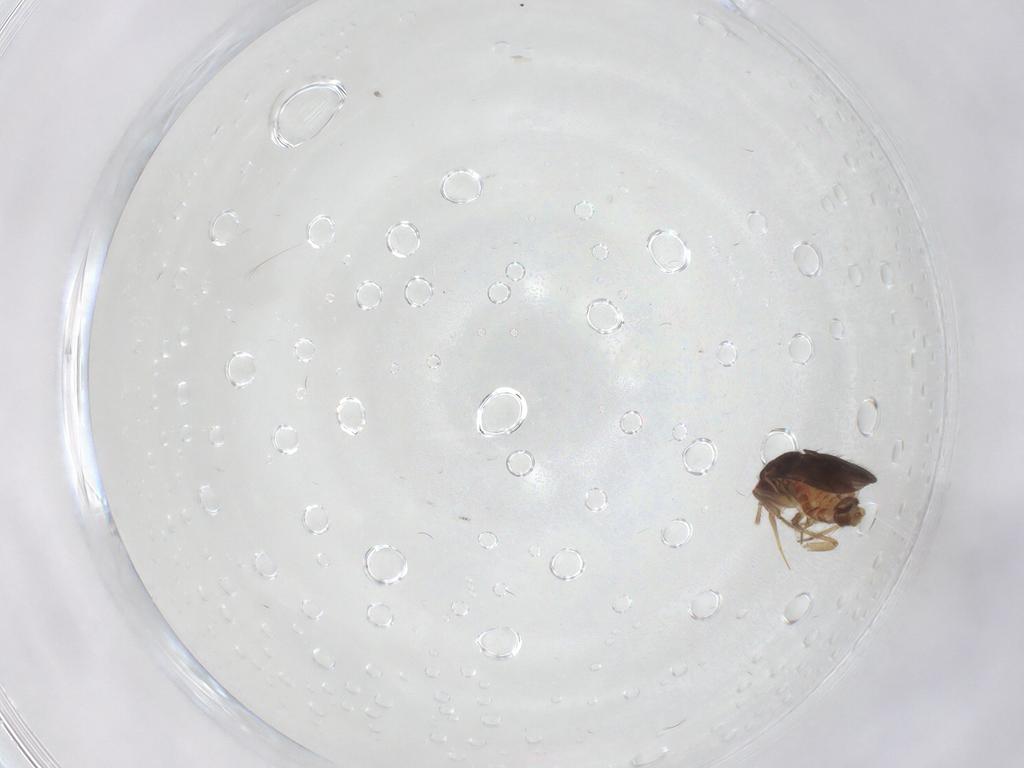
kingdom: Animalia
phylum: Arthropoda
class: Insecta
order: Hemiptera
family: Ceratocombidae
